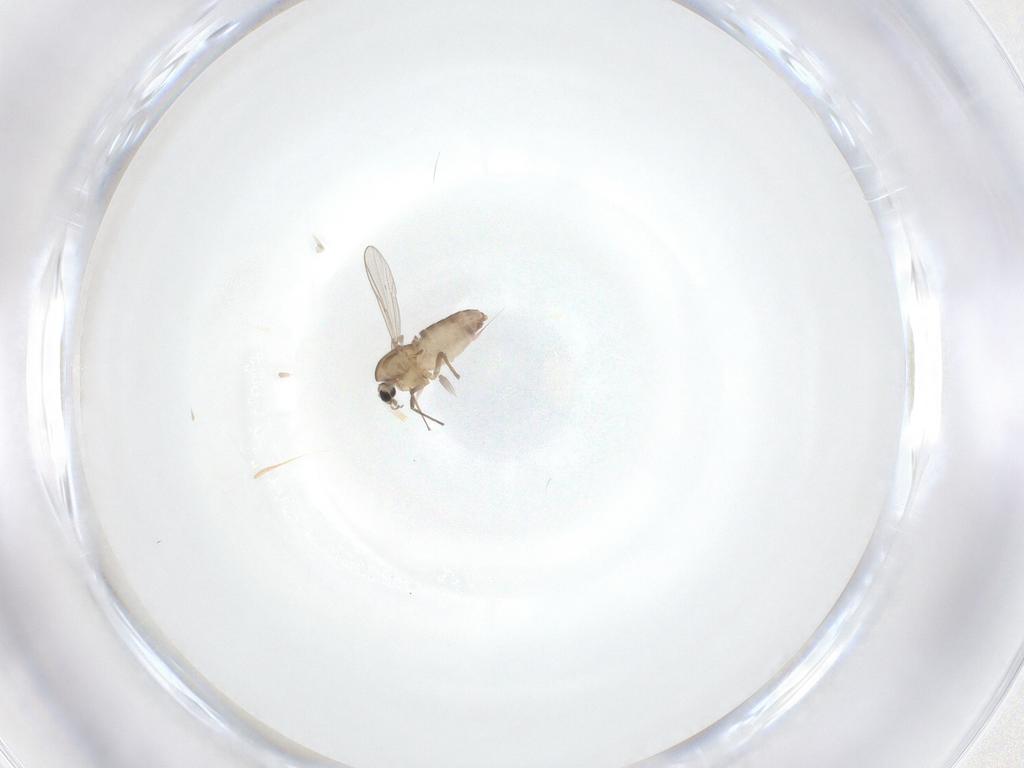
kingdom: Animalia
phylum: Arthropoda
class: Insecta
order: Diptera
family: Chironomidae
